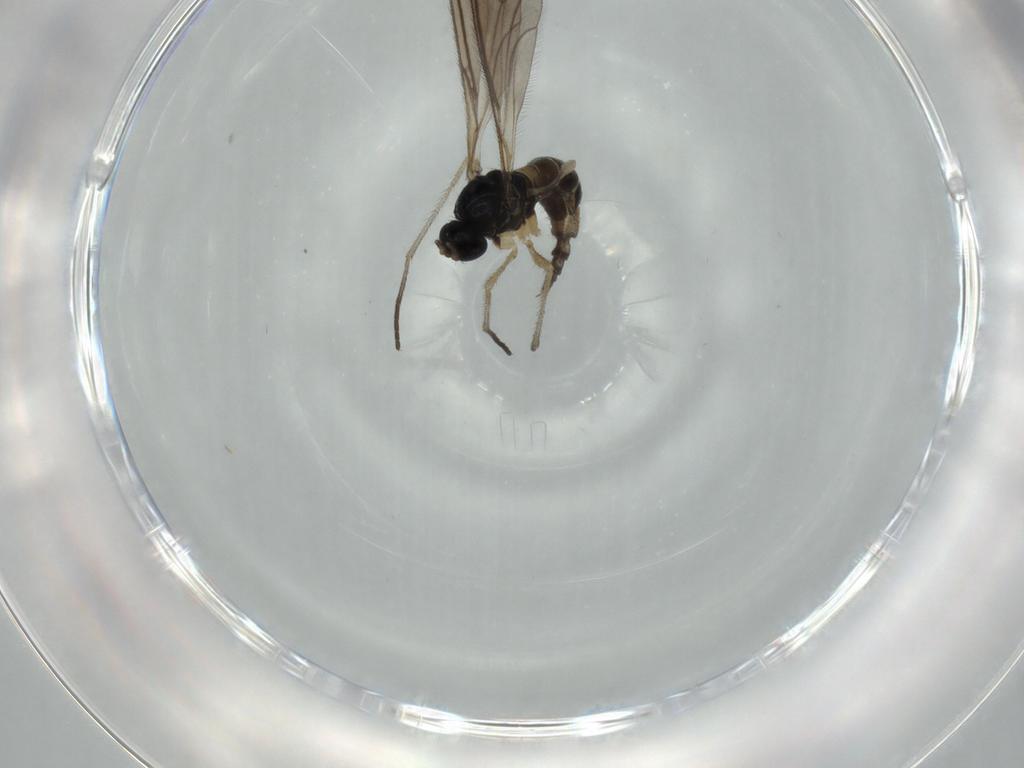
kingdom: Animalia
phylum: Arthropoda
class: Insecta
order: Diptera
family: Sciaridae
